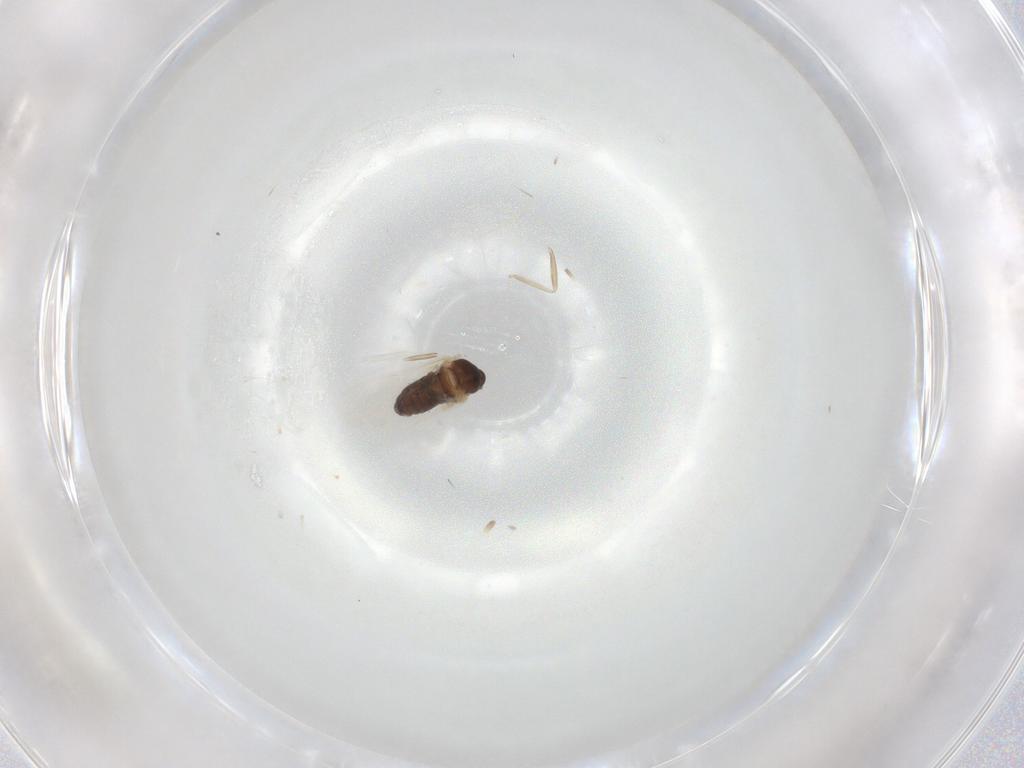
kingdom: Animalia
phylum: Arthropoda
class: Insecta
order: Diptera
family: Cecidomyiidae
